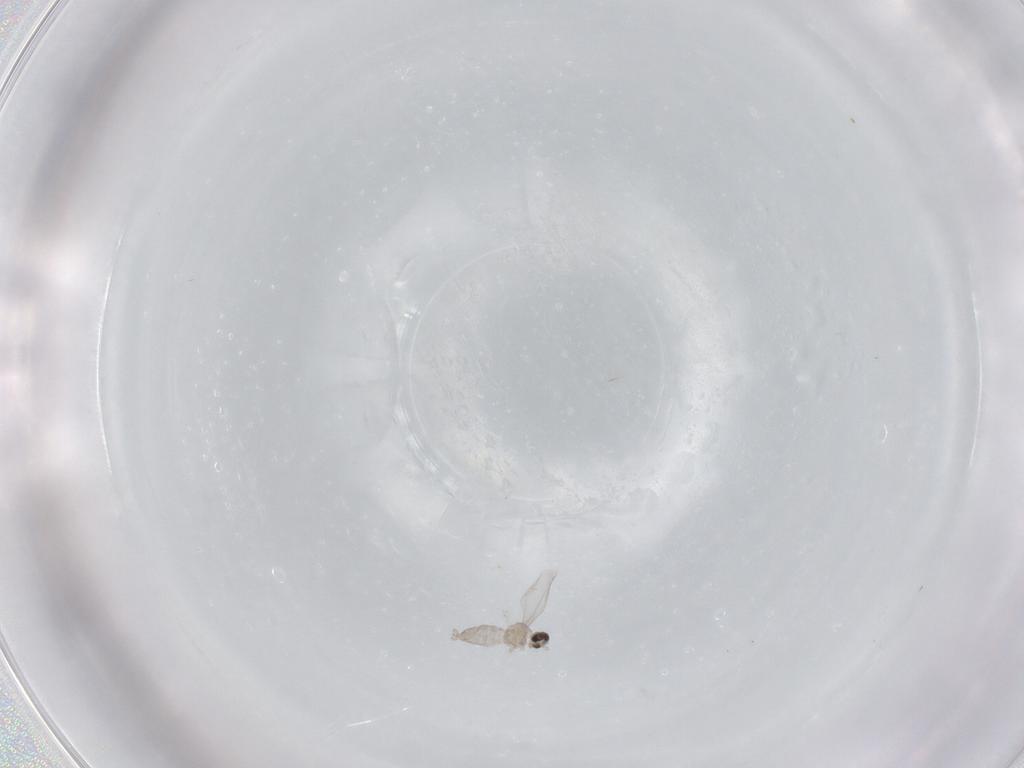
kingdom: Animalia
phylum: Arthropoda
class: Insecta
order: Diptera
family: Cecidomyiidae
